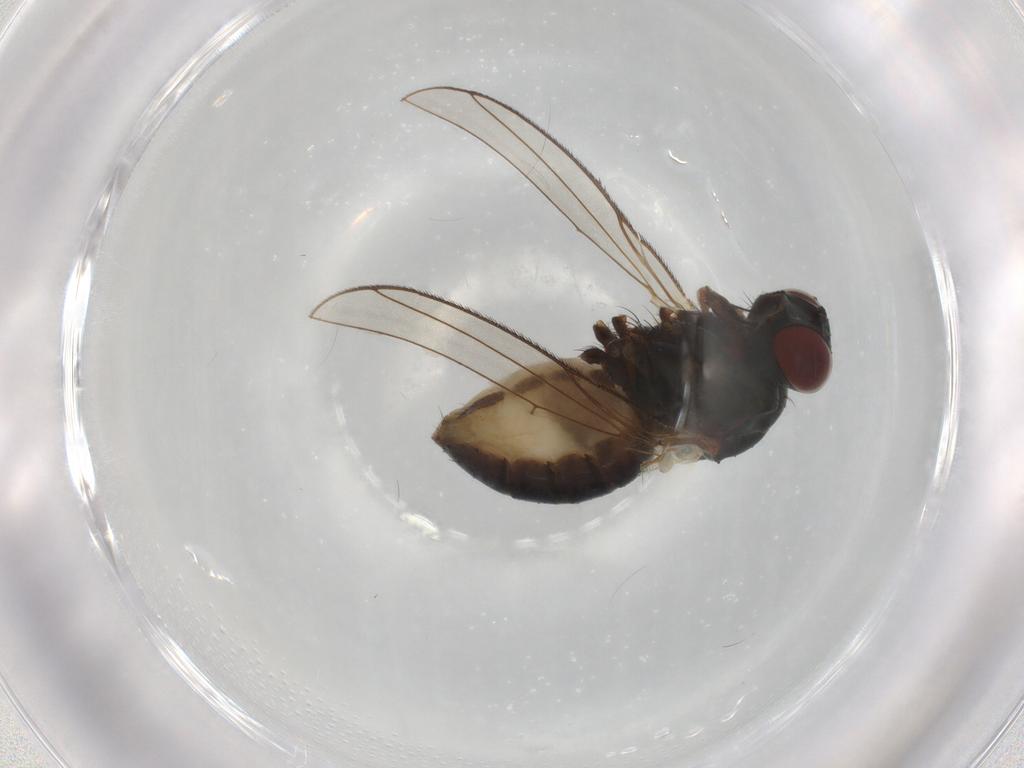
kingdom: Animalia
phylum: Arthropoda
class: Insecta
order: Diptera
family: Muscidae
